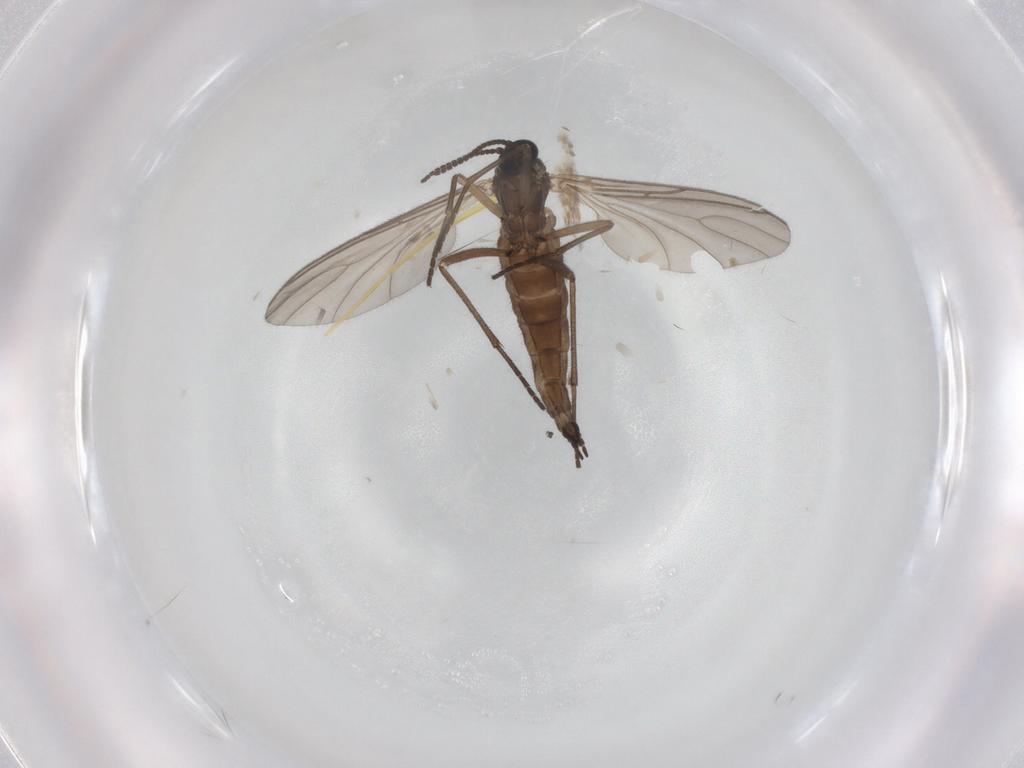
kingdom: Animalia
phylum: Arthropoda
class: Insecta
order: Diptera
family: Sciaridae
